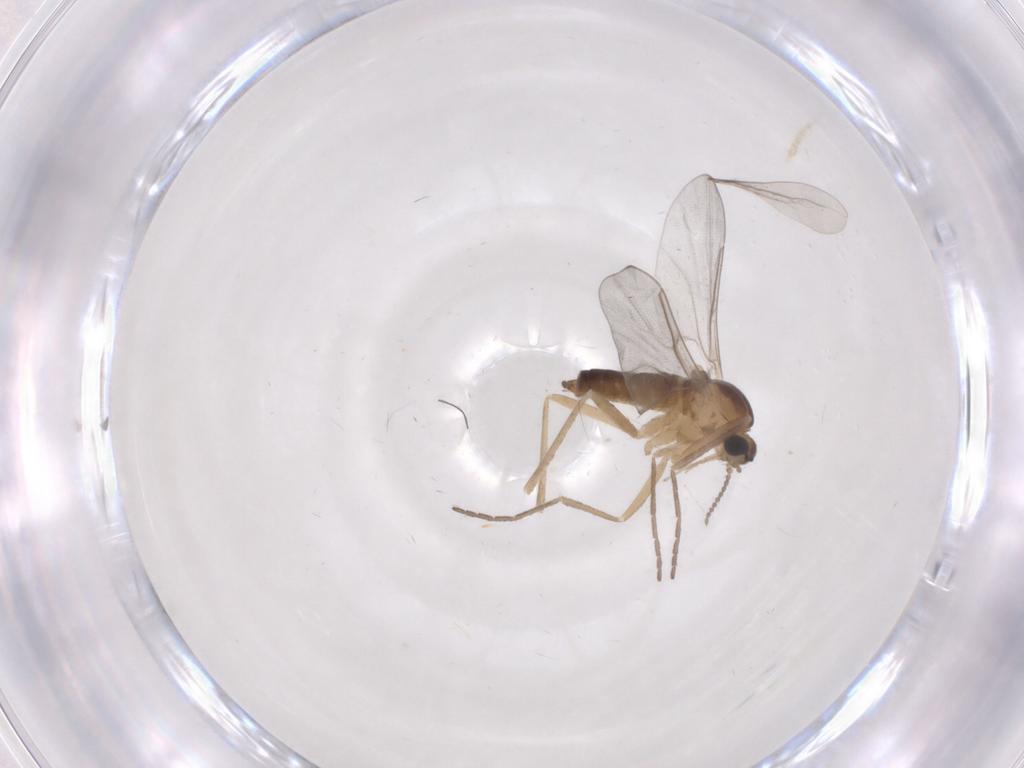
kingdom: Animalia
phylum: Arthropoda
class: Insecta
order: Diptera
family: Cecidomyiidae
